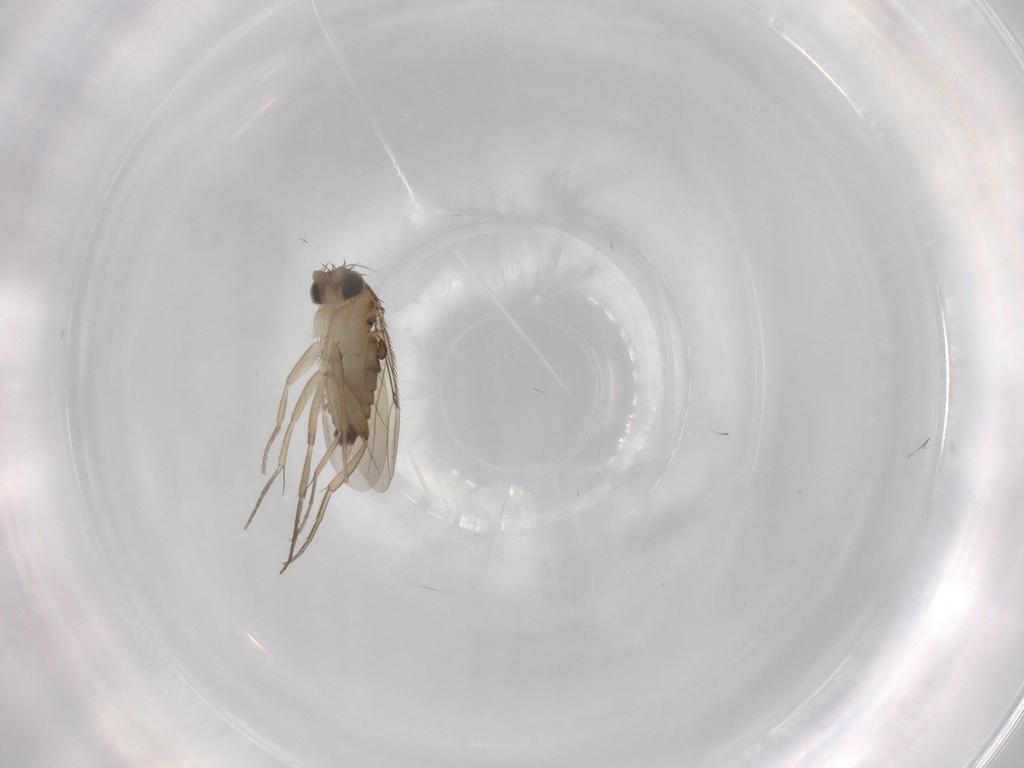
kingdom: Animalia
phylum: Arthropoda
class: Insecta
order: Diptera
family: Phoridae
